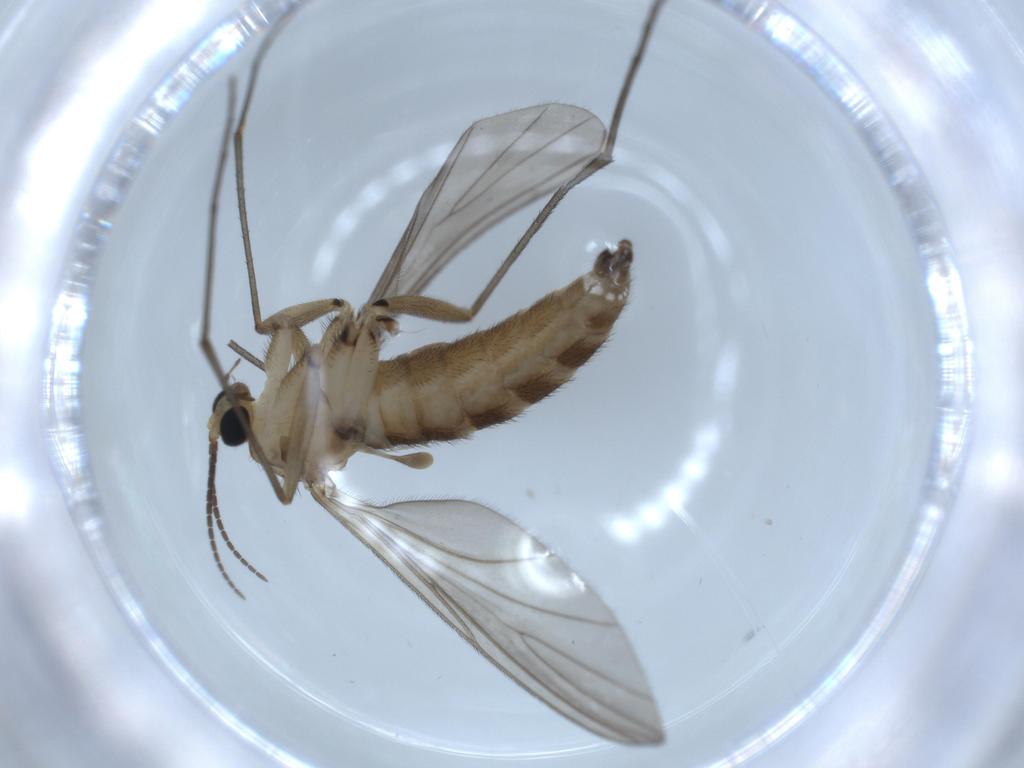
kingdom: Animalia
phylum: Arthropoda
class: Insecta
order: Diptera
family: Sciaridae
